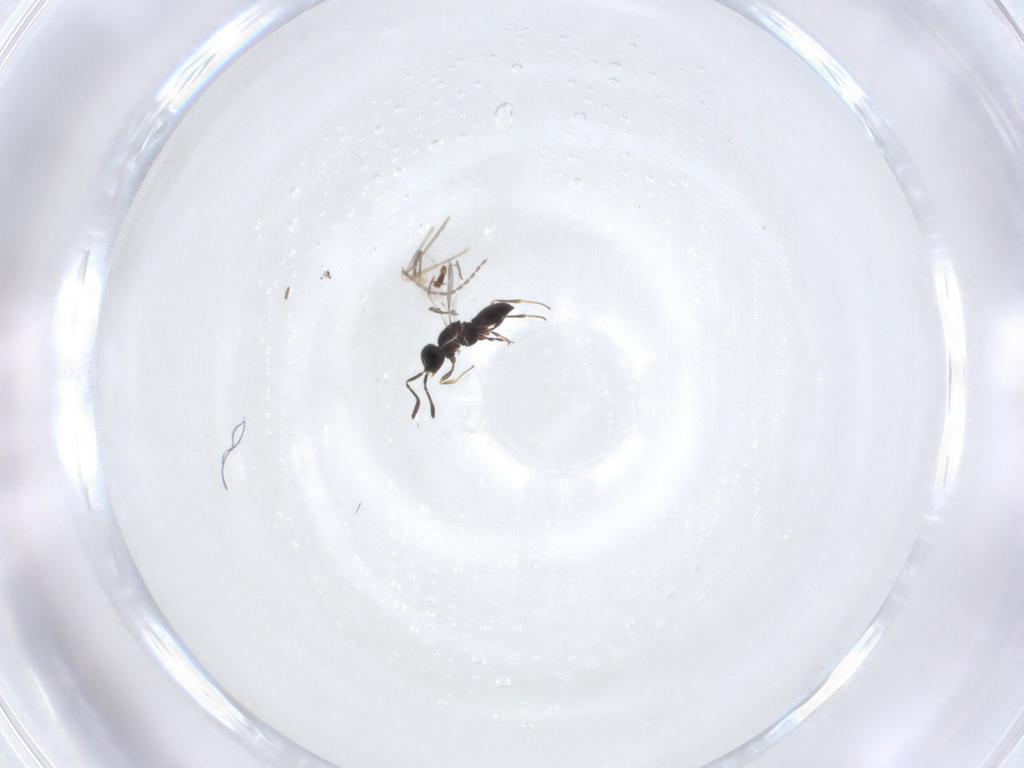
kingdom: Animalia
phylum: Arthropoda
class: Insecta
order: Hymenoptera
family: Scelionidae
